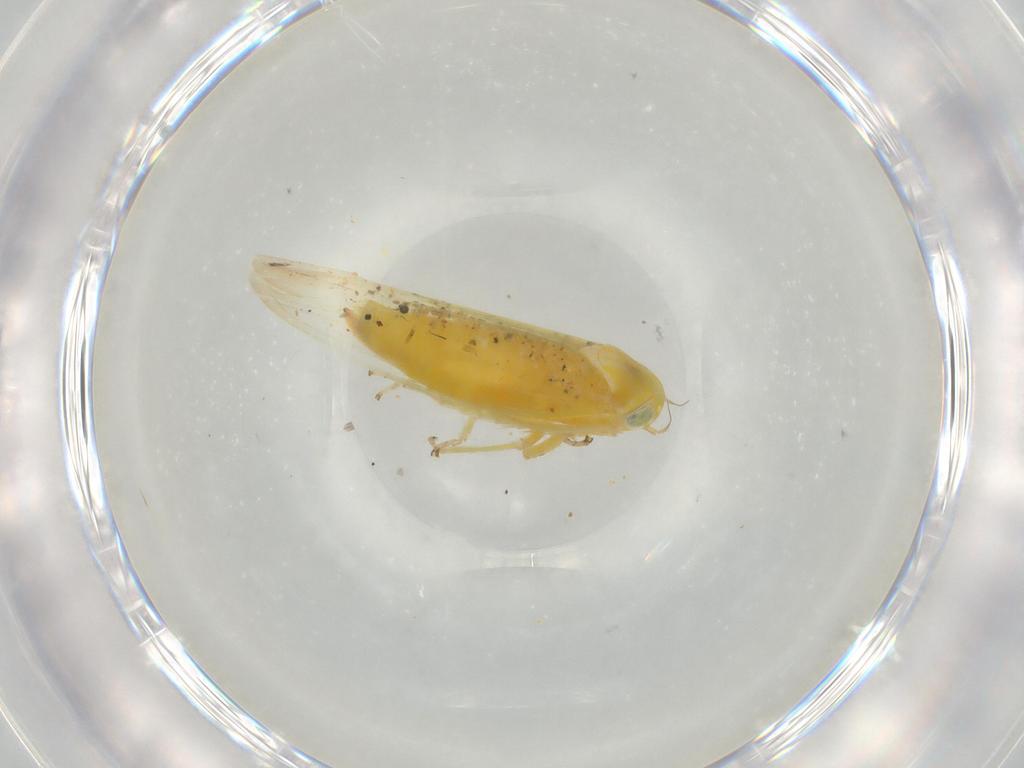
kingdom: Animalia
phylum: Arthropoda
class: Insecta
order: Hemiptera
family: Cicadellidae
